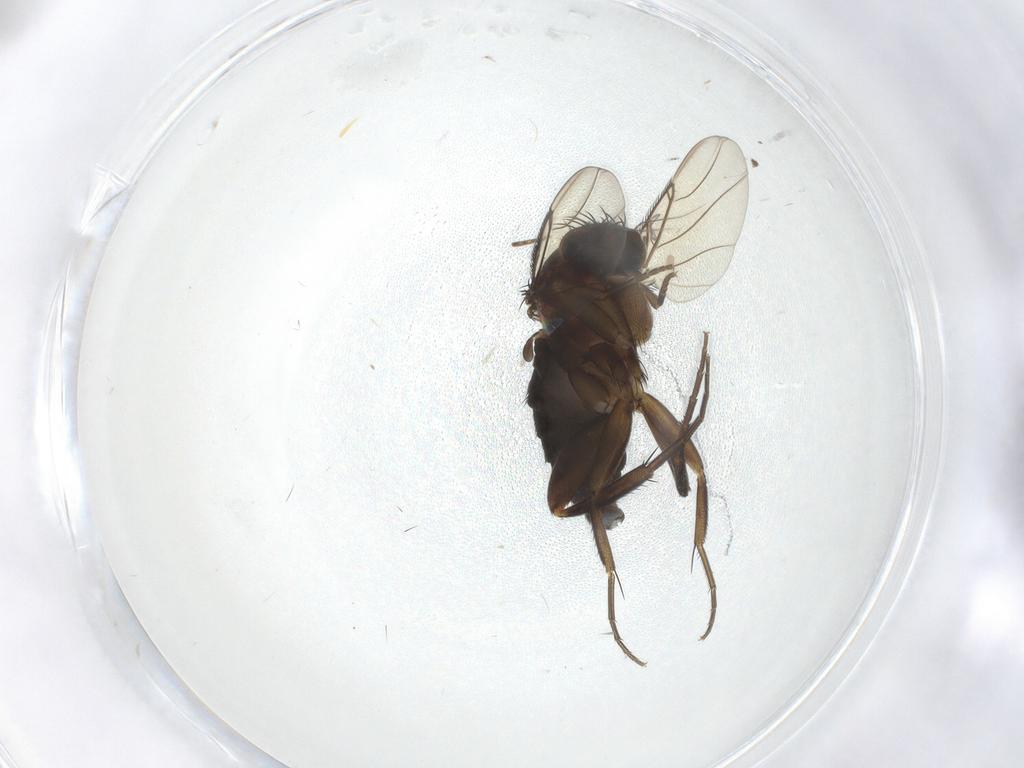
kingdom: Animalia
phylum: Arthropoda
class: Insecta
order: Diptera
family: Phoridae
